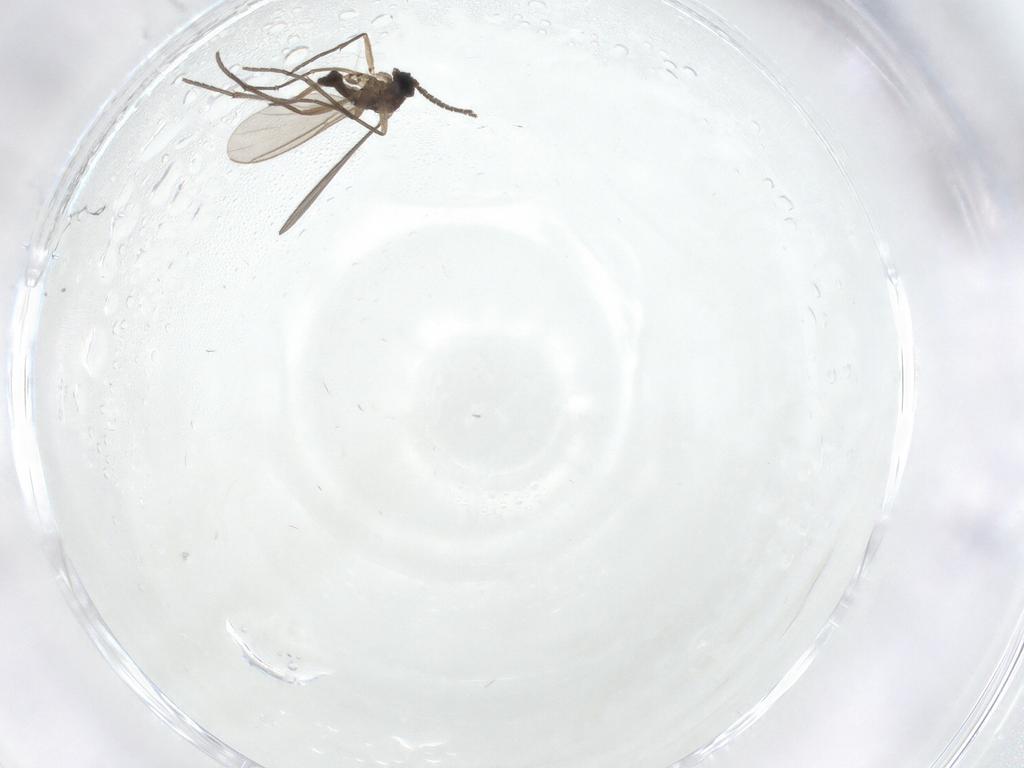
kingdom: Animalia
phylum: Arthropoda
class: Insecta
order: Diptera
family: Sciaridae
